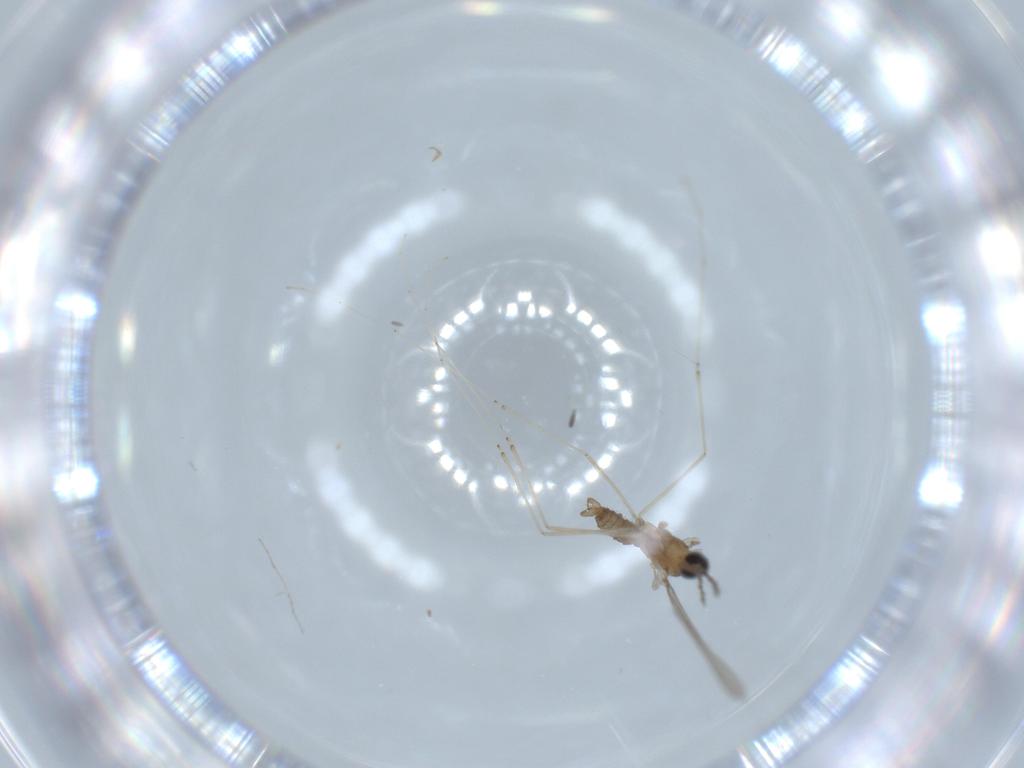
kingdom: Animalia
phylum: Arthropoda
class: Insecta
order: Diptera
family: Cecidomyiidae
